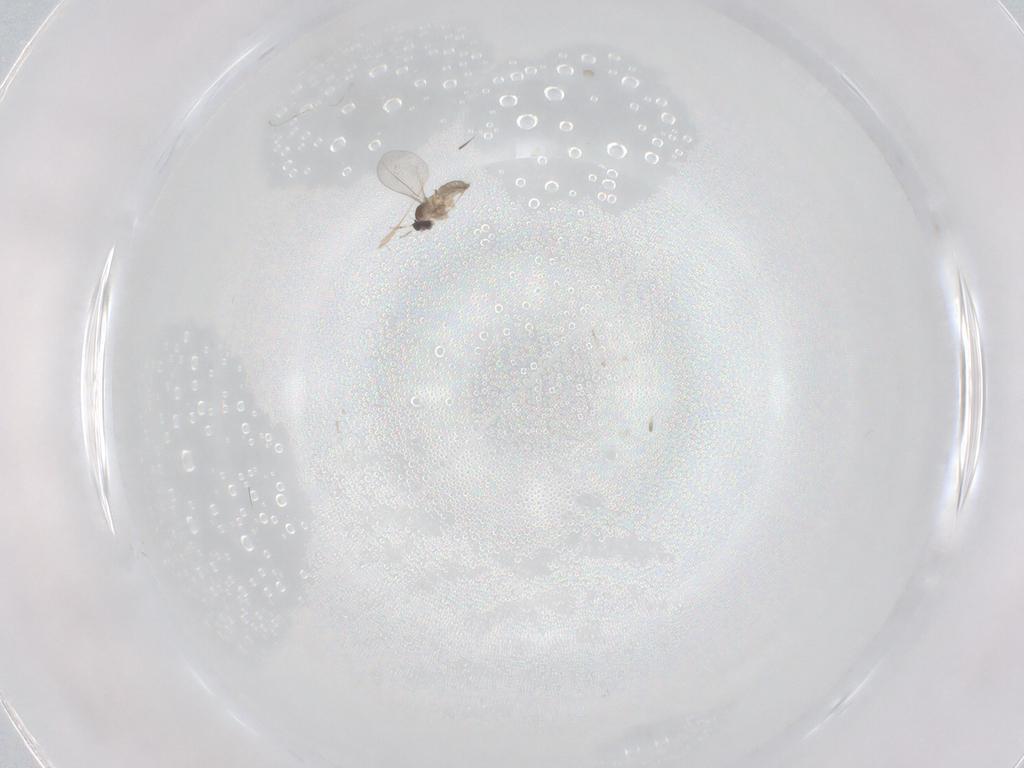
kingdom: Animalia
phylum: Arthropoda
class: Insecta
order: Diptera
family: Cecidomyiidae
